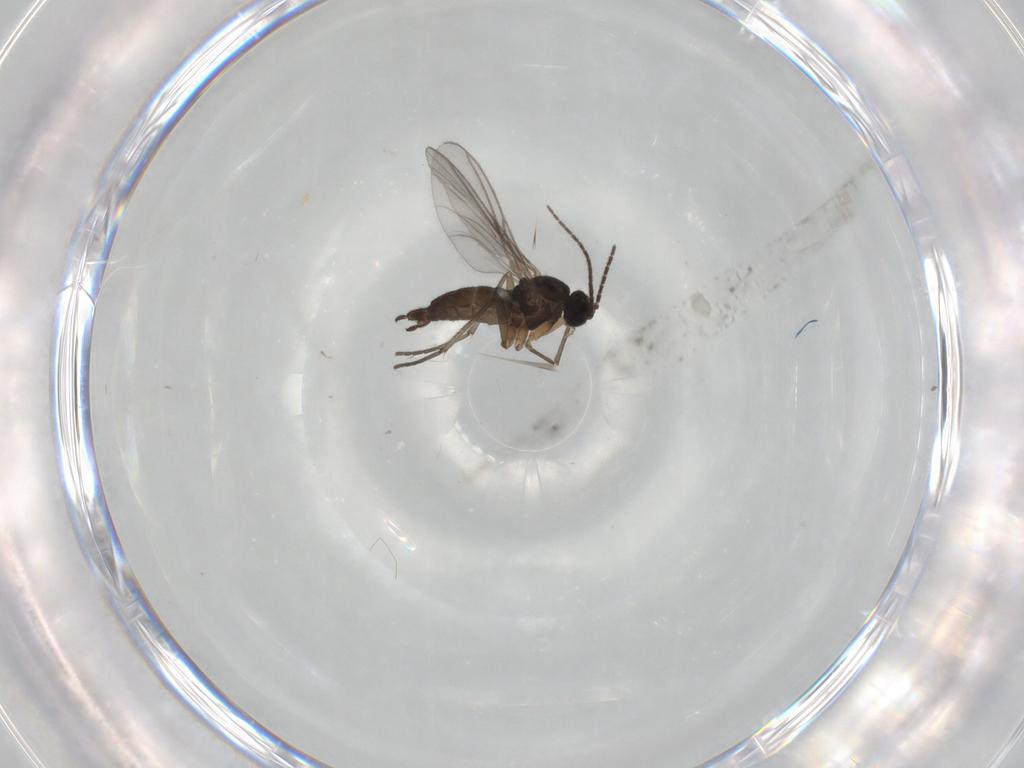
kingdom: Animalia
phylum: Arthropoda
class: Insecta
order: Diptera
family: Sciaridae
